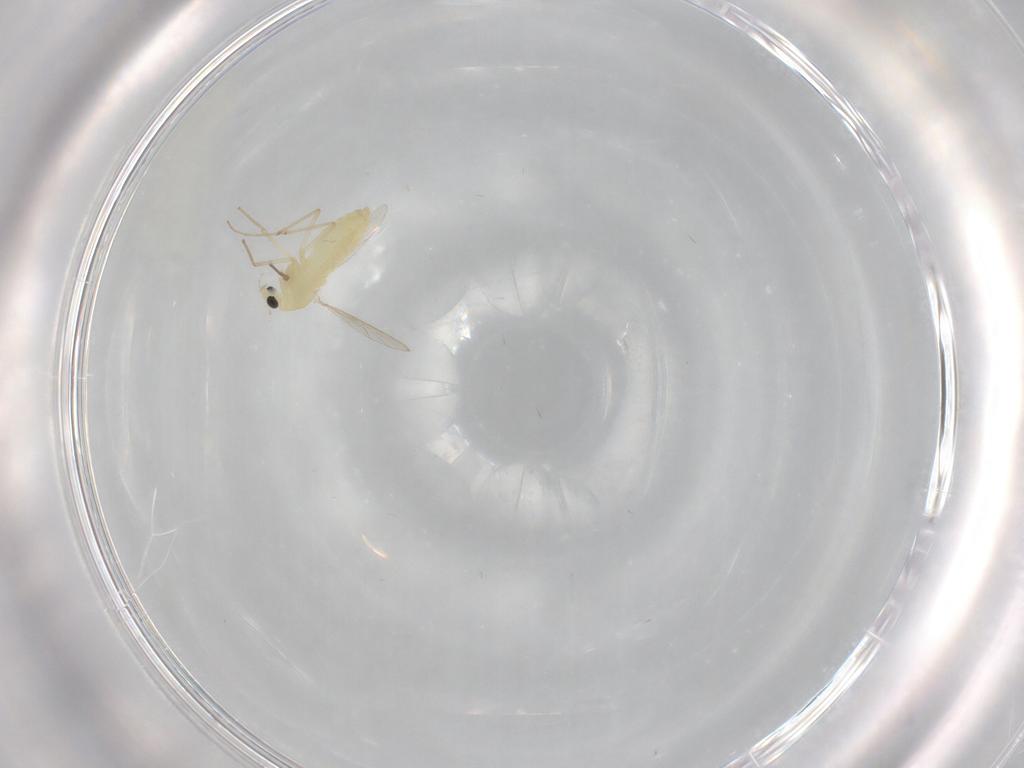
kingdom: Animalia
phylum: Arthropoda
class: Insecta
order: Diptera
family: Chironomidae
